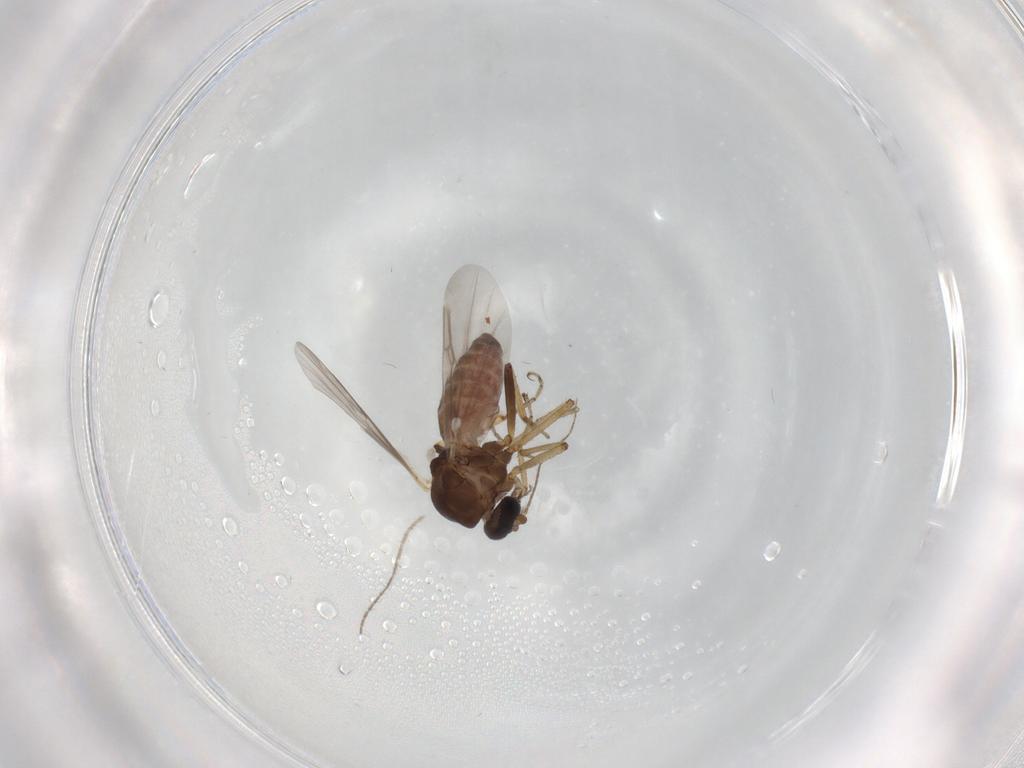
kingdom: Animalia
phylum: Arthropoda
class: Insecta
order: Diptera
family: Ceratopogonidae
